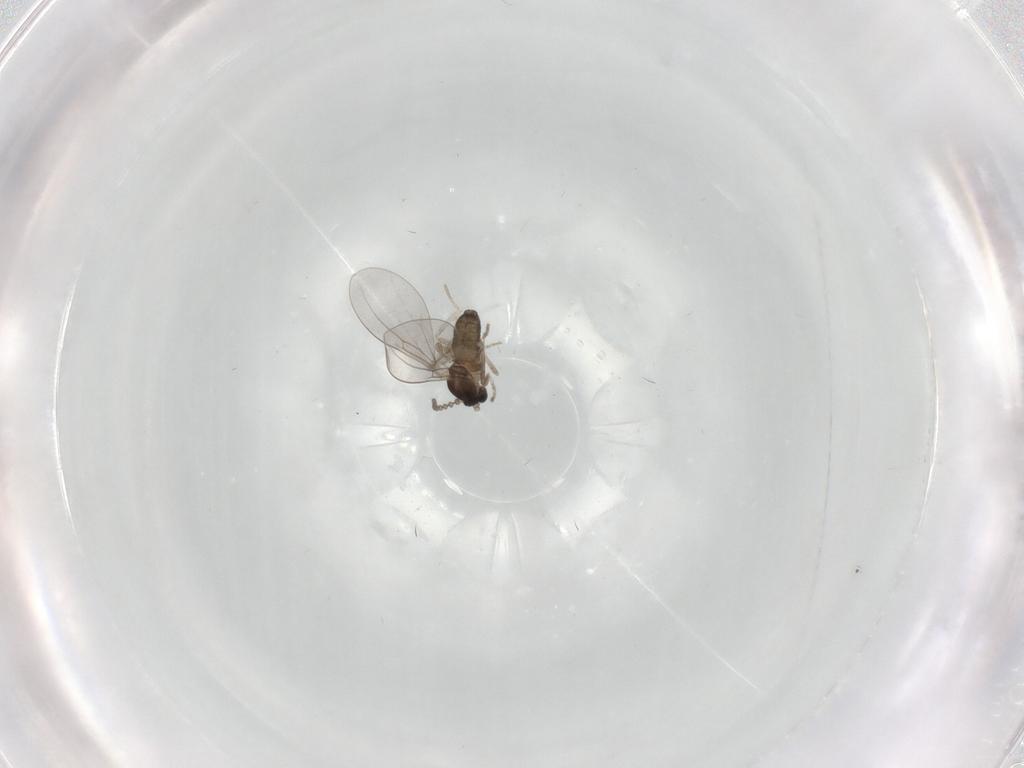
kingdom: Animalia
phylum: Arthropoda
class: Insecta
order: Diptera
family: Cecidomyiidae
